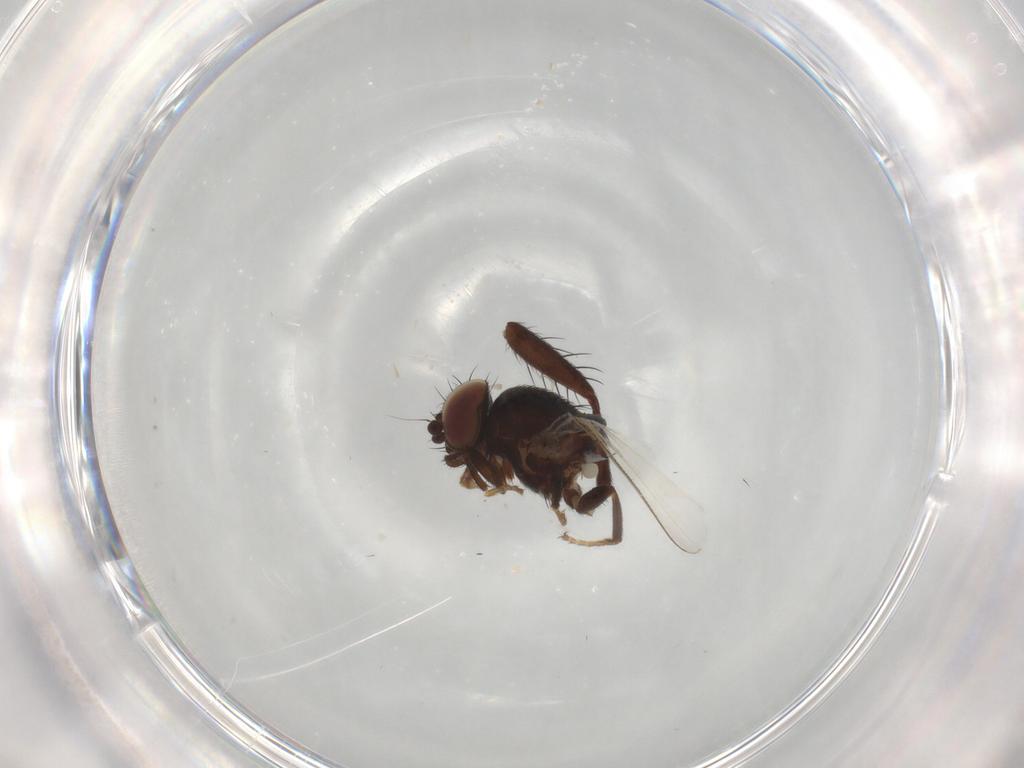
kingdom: Animalia
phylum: Arthropoda
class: Insecta
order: Diptera
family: Milichiidae
